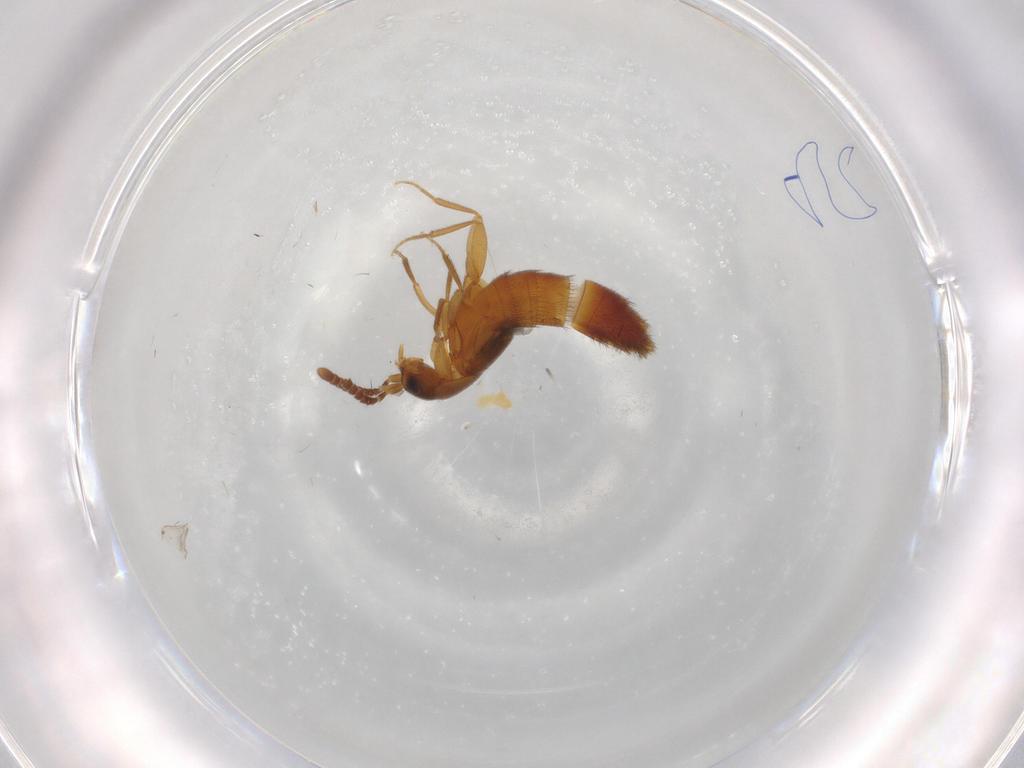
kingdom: Animalia
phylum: Arthropoda
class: Insecta
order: Coleoptera
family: Staphylinidae
